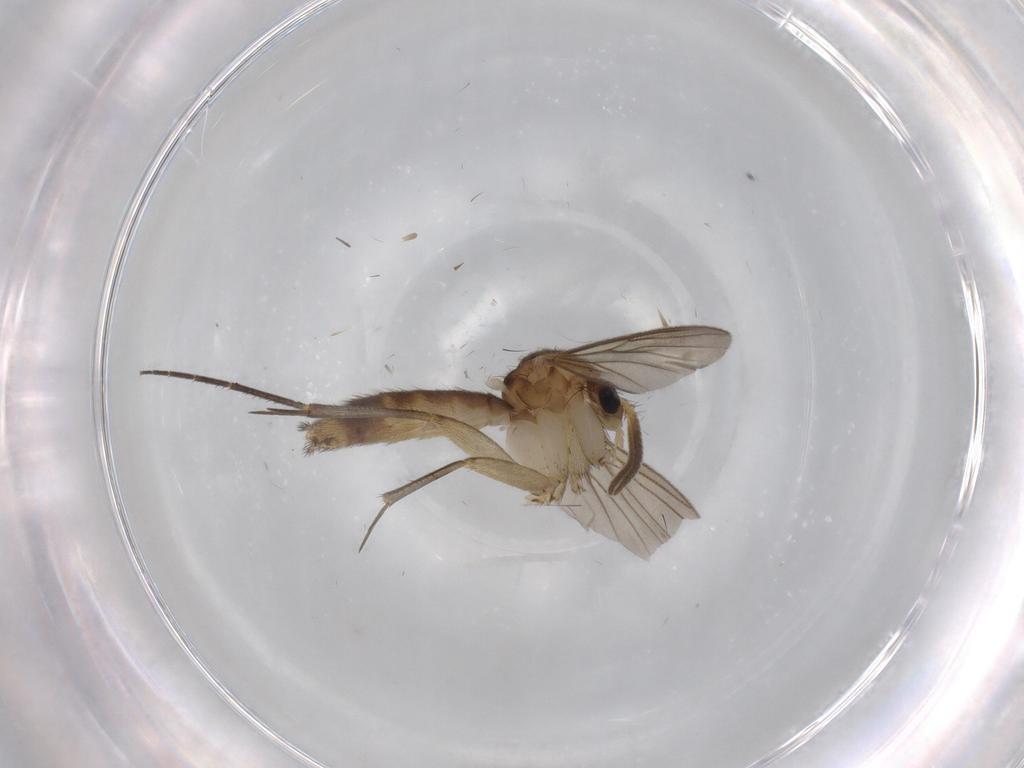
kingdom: Animalia
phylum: Arthropoda
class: Insecta
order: Diptera
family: Mycetophilidae
